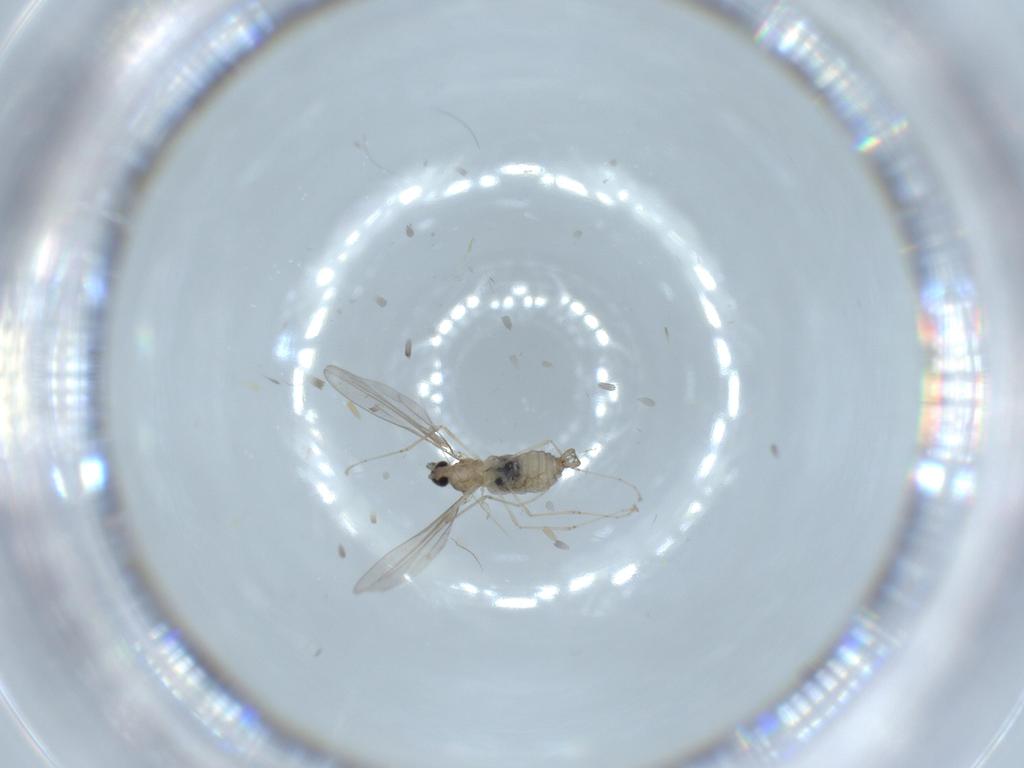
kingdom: Animalia
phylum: Arthropoda
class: Insecta
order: Diptera
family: Cecidomyiidae
